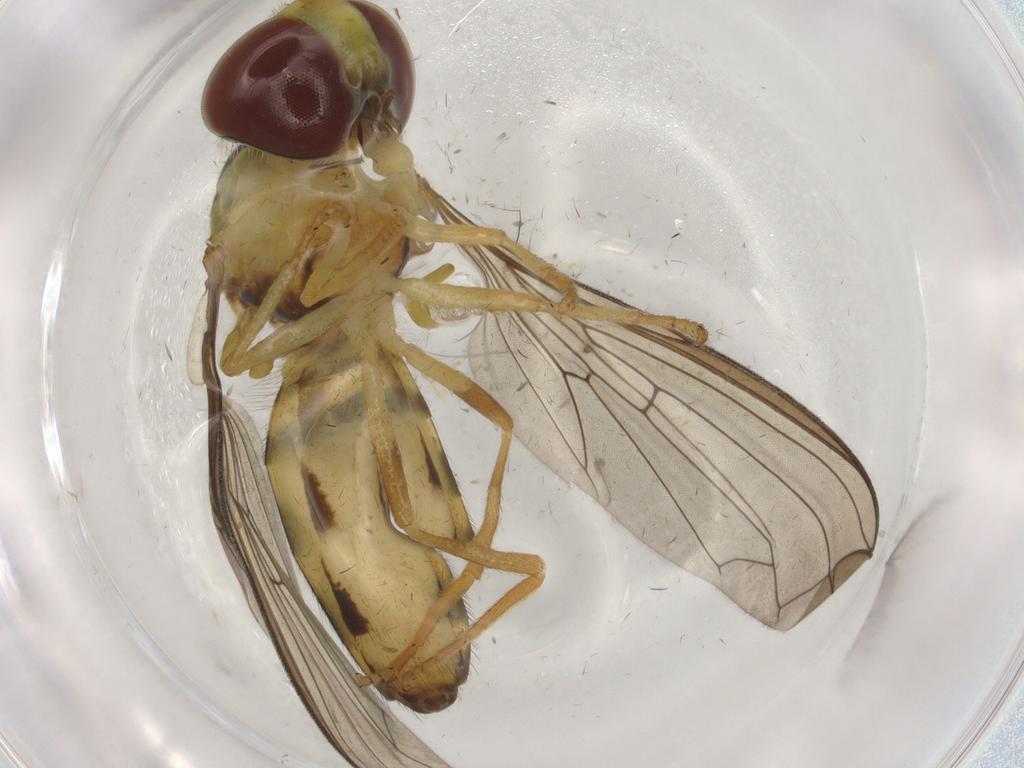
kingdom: Animalia
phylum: Arthropoda
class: Insecta
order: Diptera
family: Syrphidae
